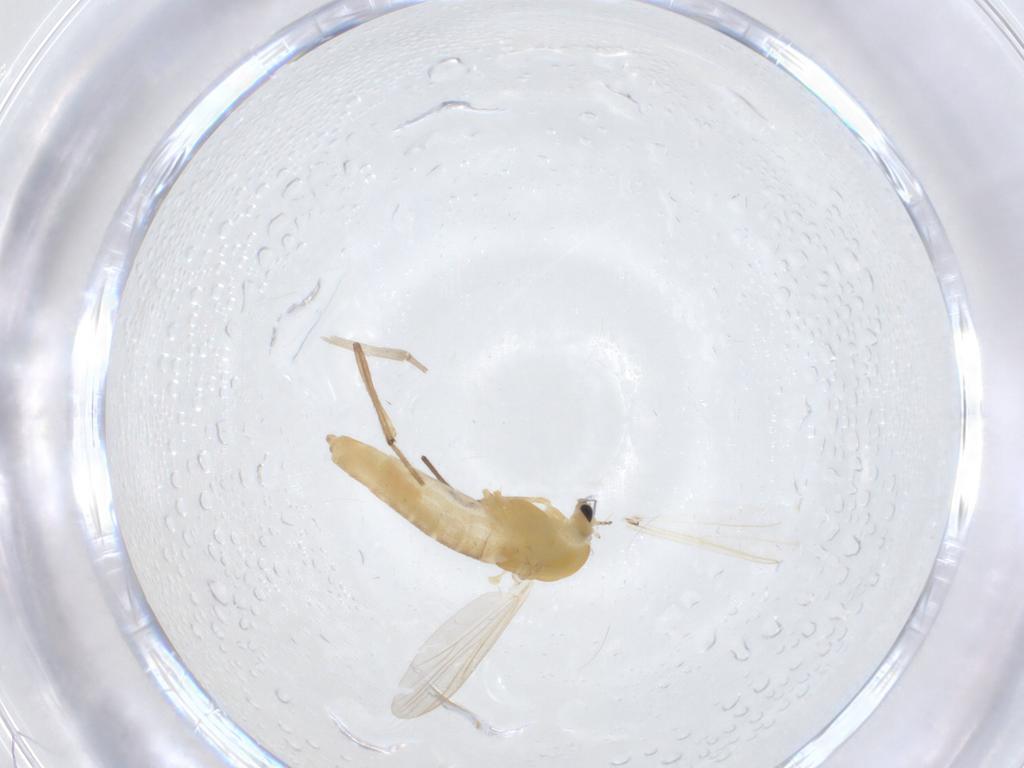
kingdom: Animalia
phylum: Arthropoda
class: Insecta
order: Diptera
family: Chironomidae
